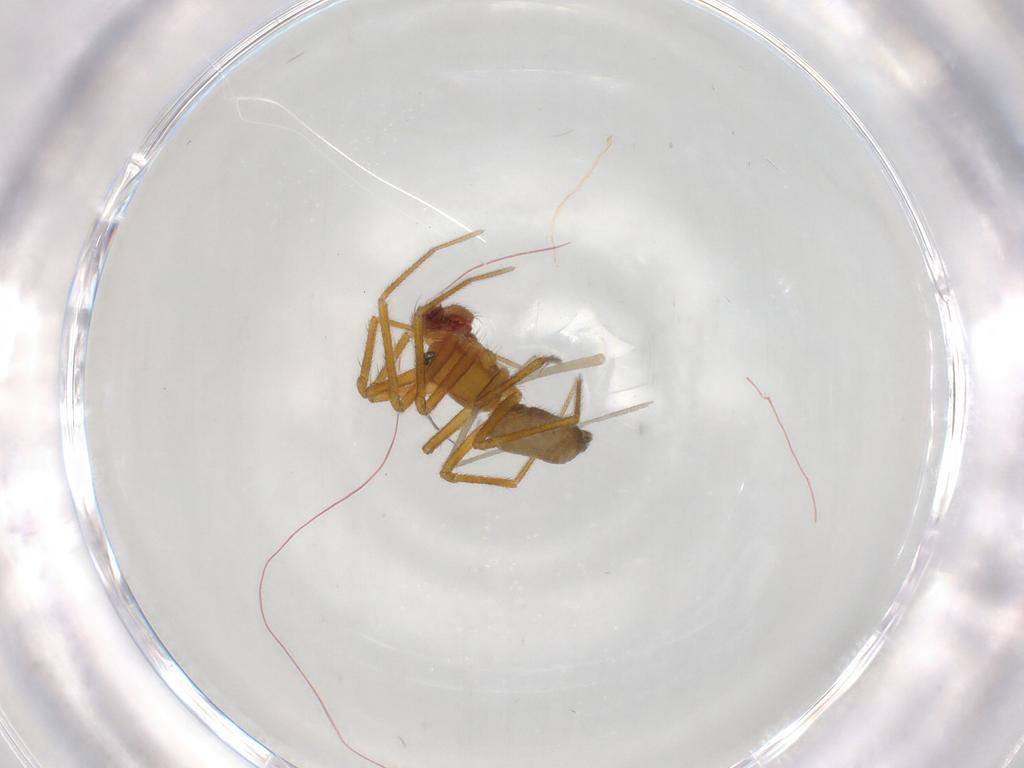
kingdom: Animalia
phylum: Arthropoda
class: Arachnida
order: Araneae
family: Linyphiidae
